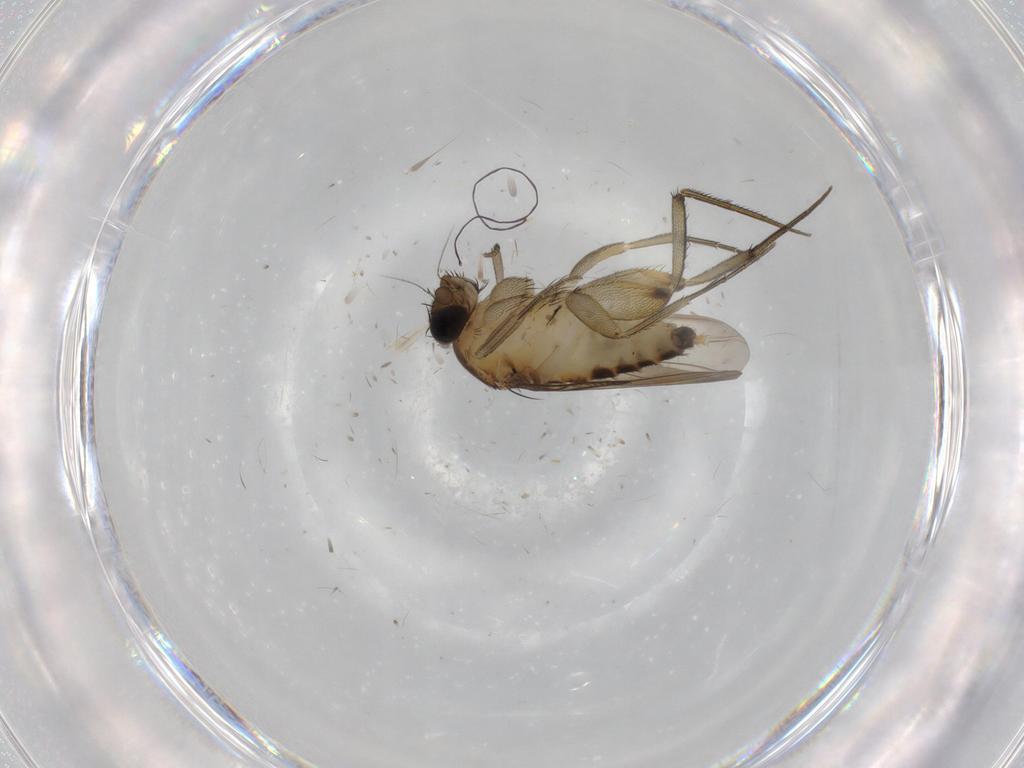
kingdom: Animalia
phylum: Arthropoda
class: Insecta
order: Diptera
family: Phoridae
